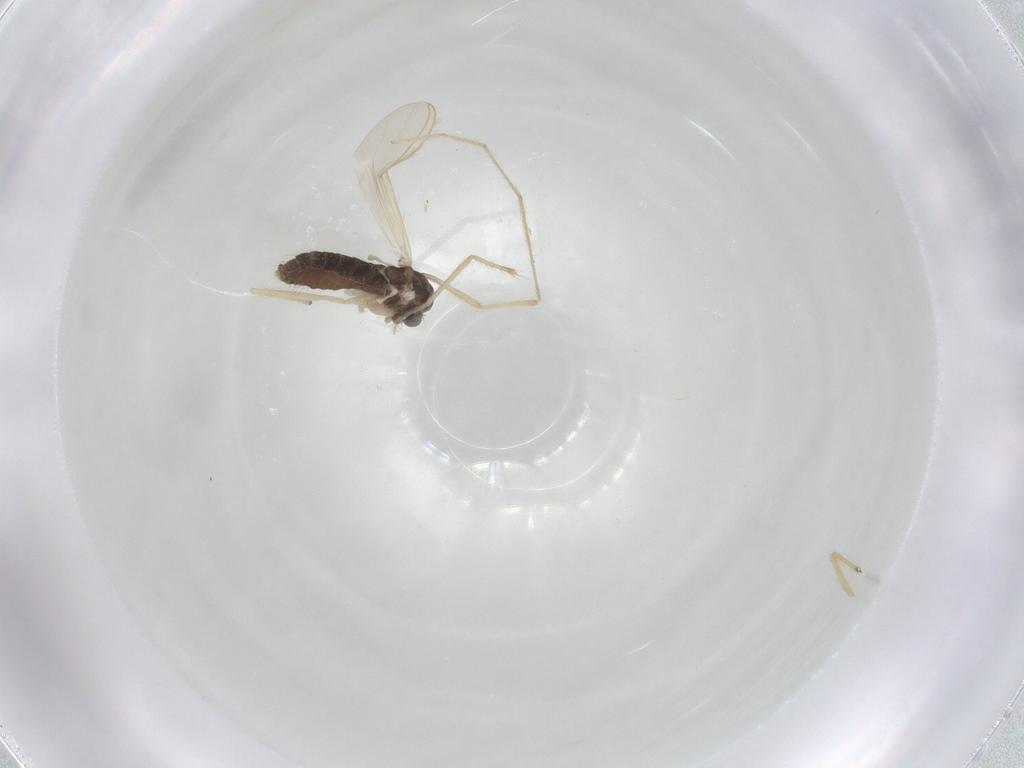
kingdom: Animalia
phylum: Arthropoda
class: Insecta
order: Diptera
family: Chironomidae
